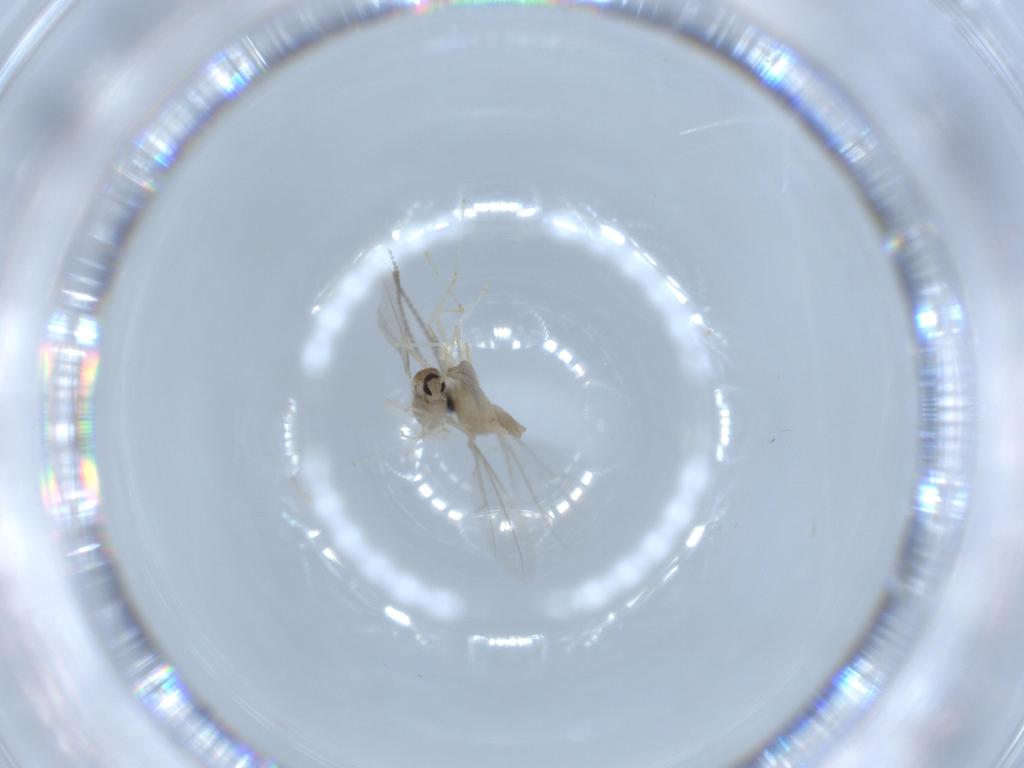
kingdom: Animalia
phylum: Arthropoda
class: Insecta
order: Diptera
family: Cecidomyiidae
